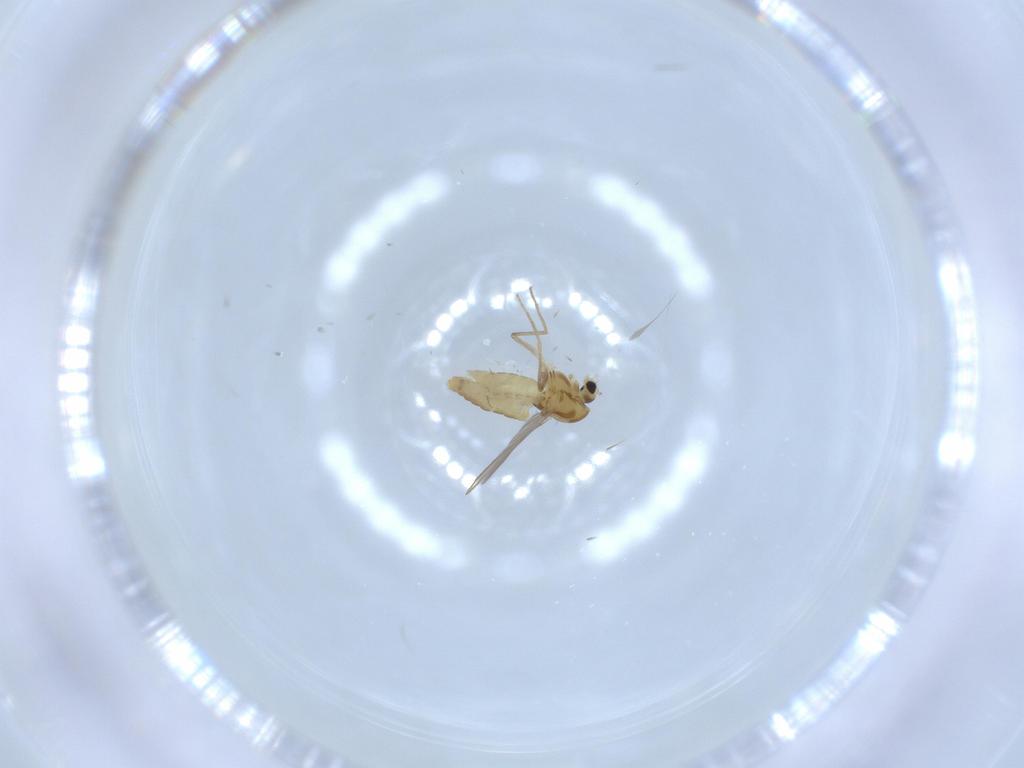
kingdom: Animalia
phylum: Arthropoda
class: Insecta
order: Diptera
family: Chironomidae
